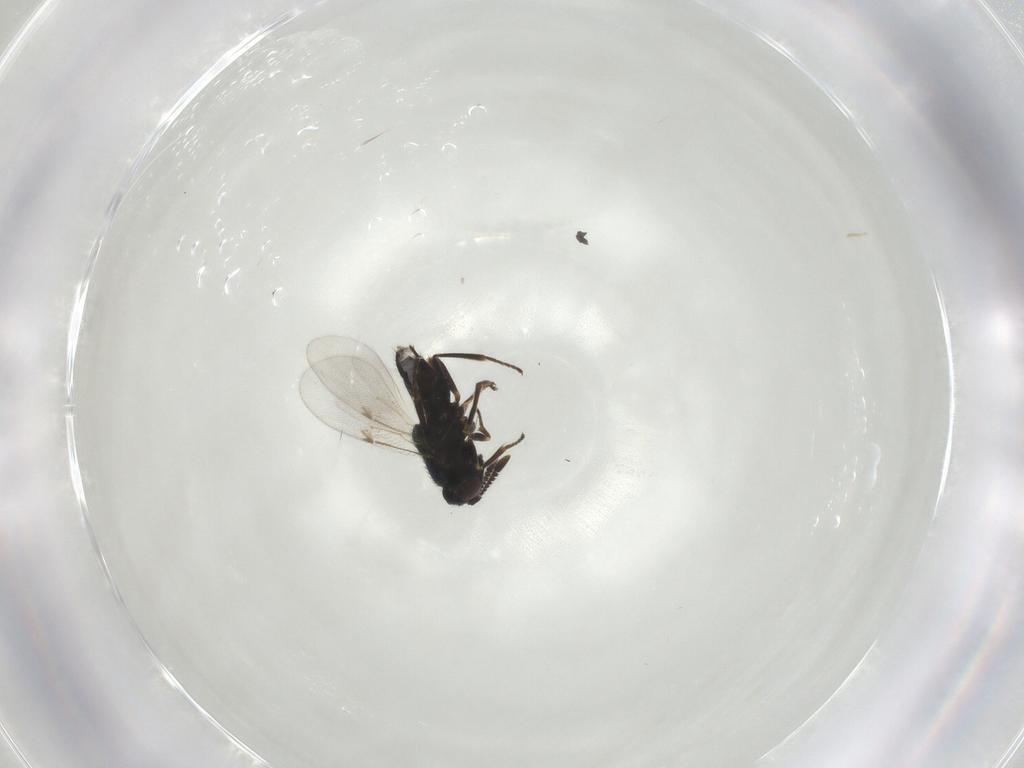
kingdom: Animalia
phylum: Arthropoda
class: Insecta
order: Hymenoptera
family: Encyrtidae
